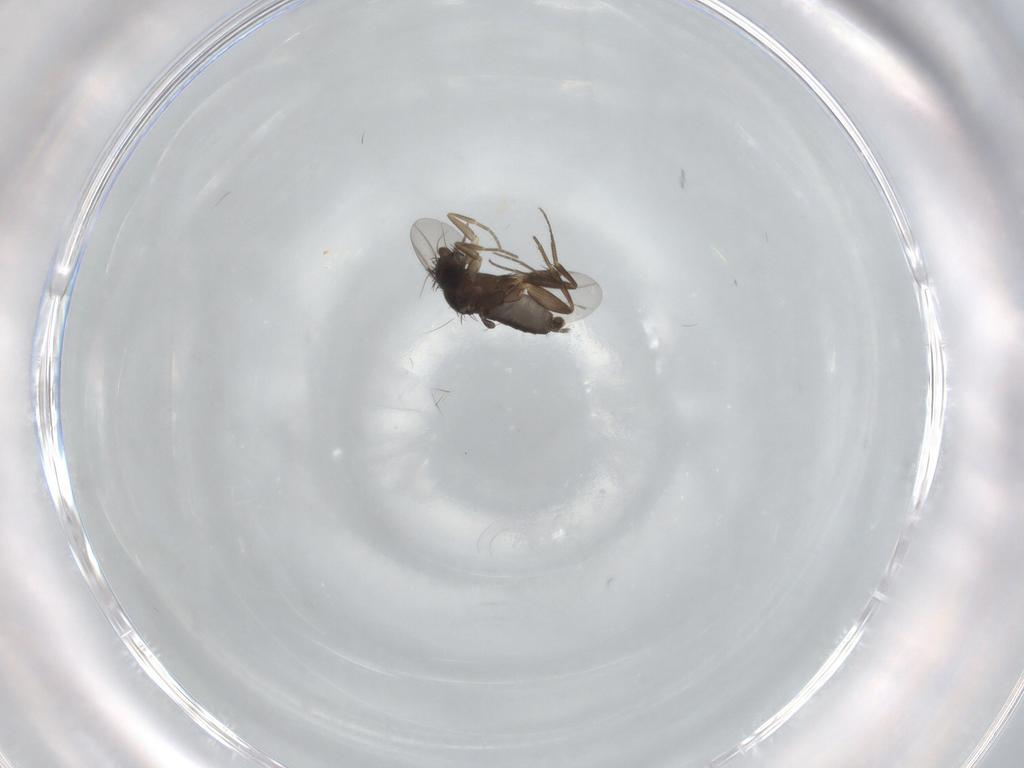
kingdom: Animalia
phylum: Arthropoda
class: Insecta
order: Diptera
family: Phoridae
